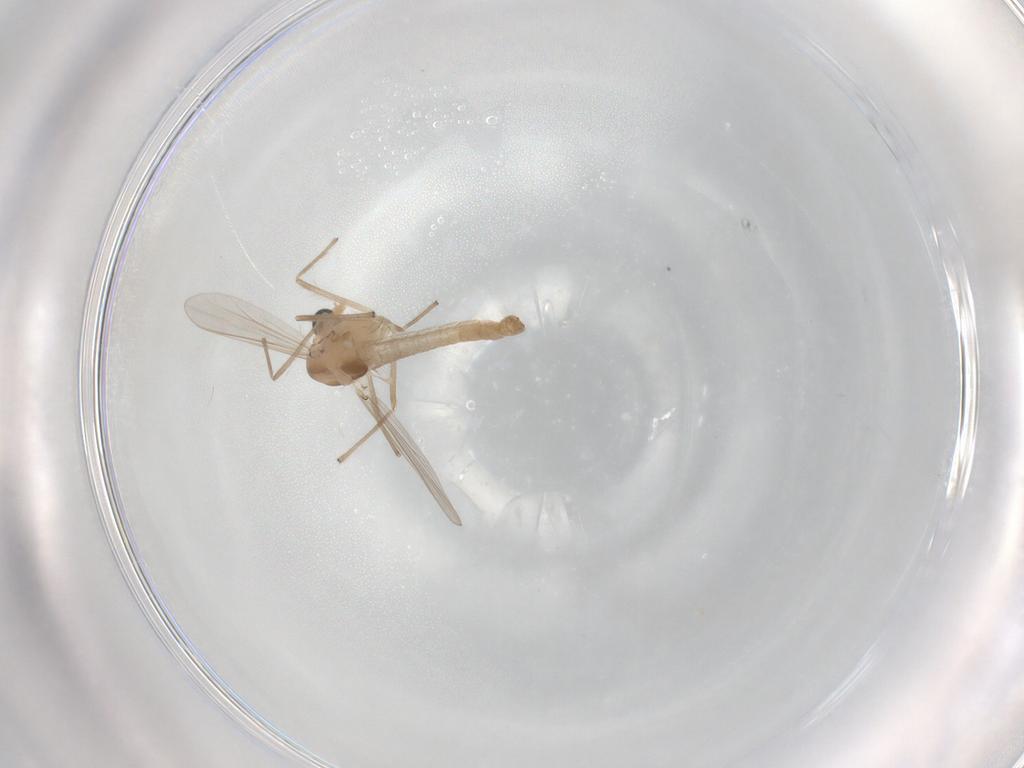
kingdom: Animalia
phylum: Arthropoda
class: Insecta
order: Diptera
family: Chironomidae
